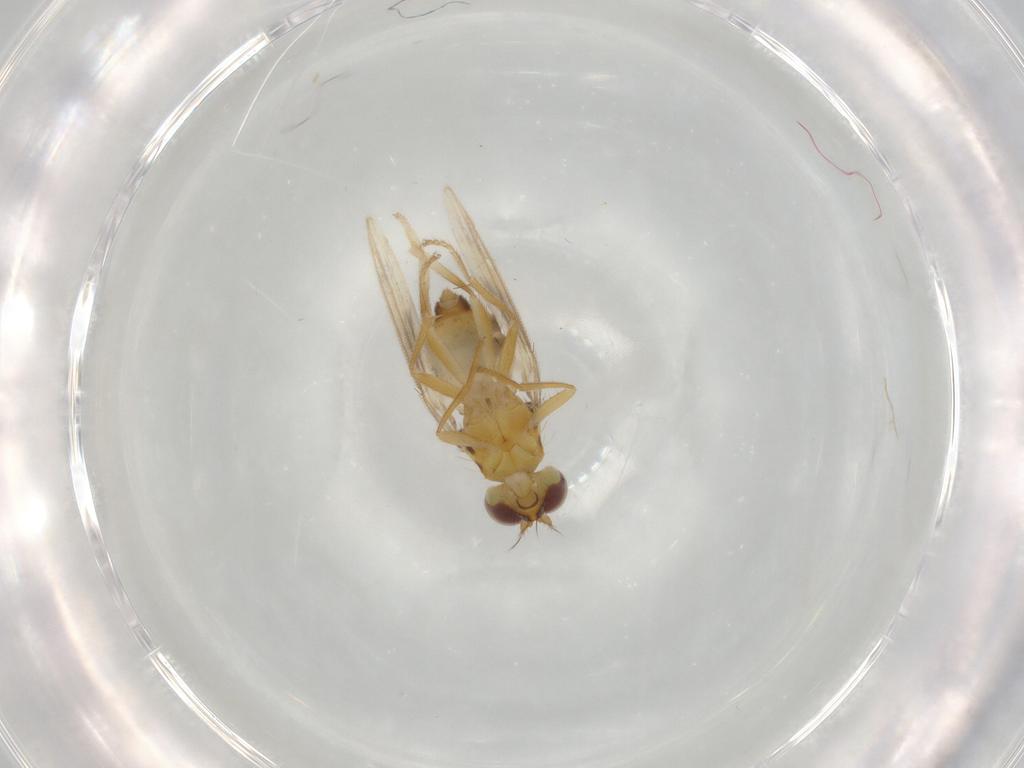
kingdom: Animalia
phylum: Arthropoda
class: Insecta
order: Diptera
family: Periscelididae
